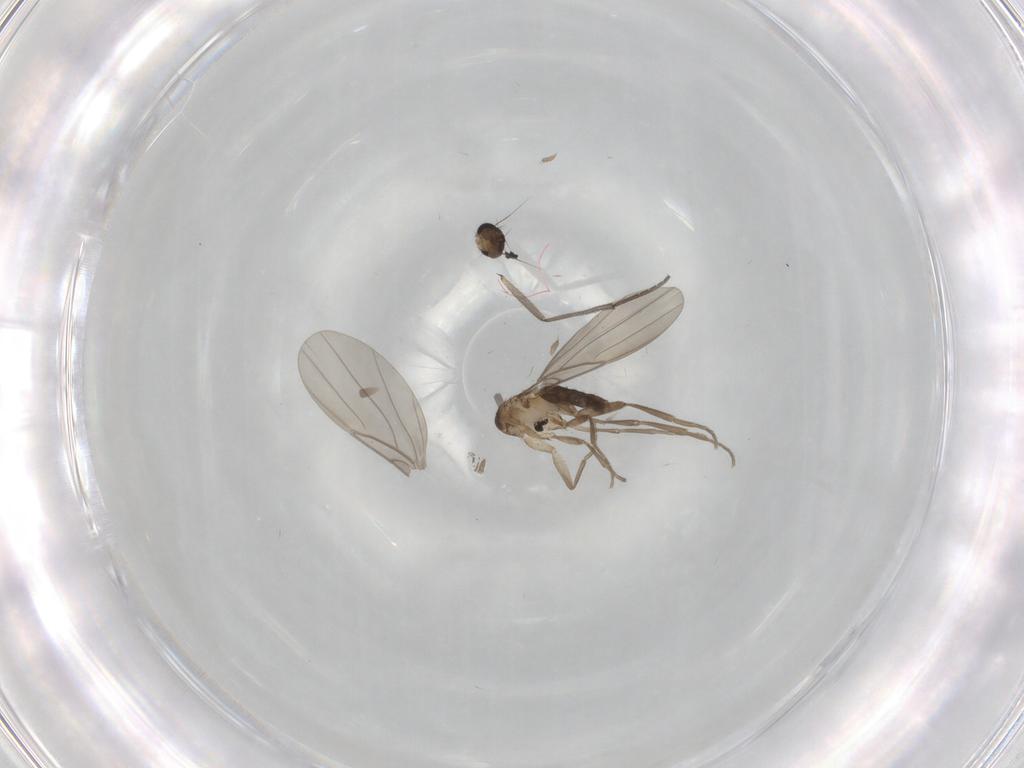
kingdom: Animalia
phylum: Arthropoda
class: Insecta
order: Diptera
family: Phoridae
